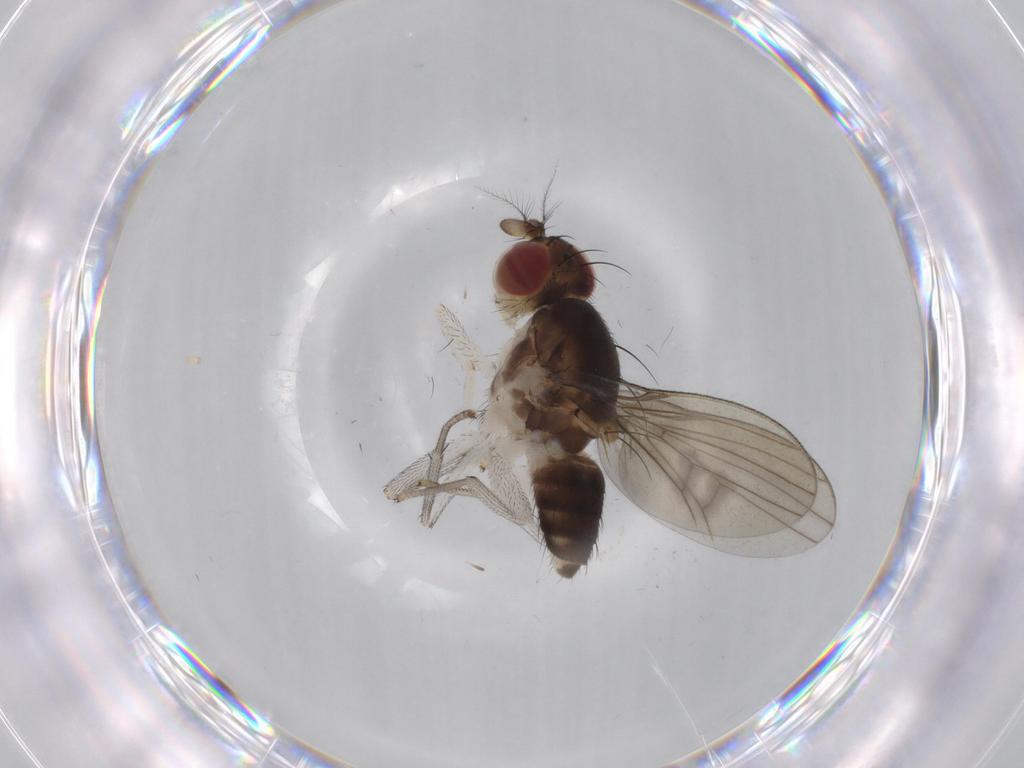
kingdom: Animalia
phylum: Arthropoda
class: Insecta
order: Diptera
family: Lauxaniidae
